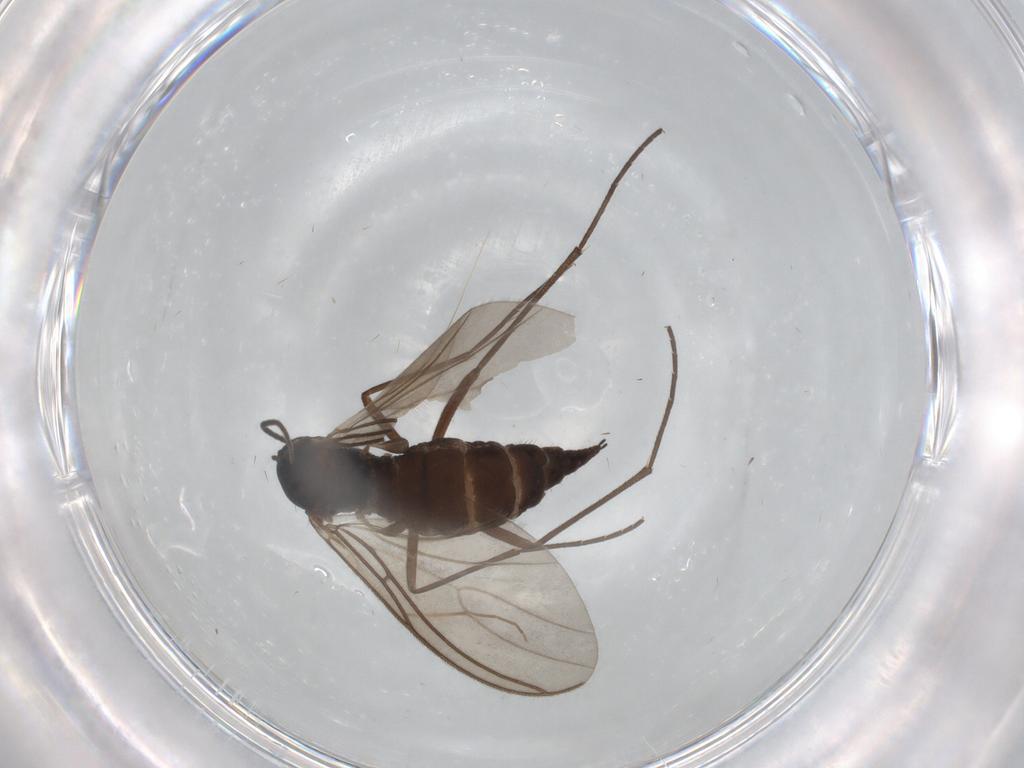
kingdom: Animalia
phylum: Arthropoda
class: Insecta
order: Diptera
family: Sciaridae
